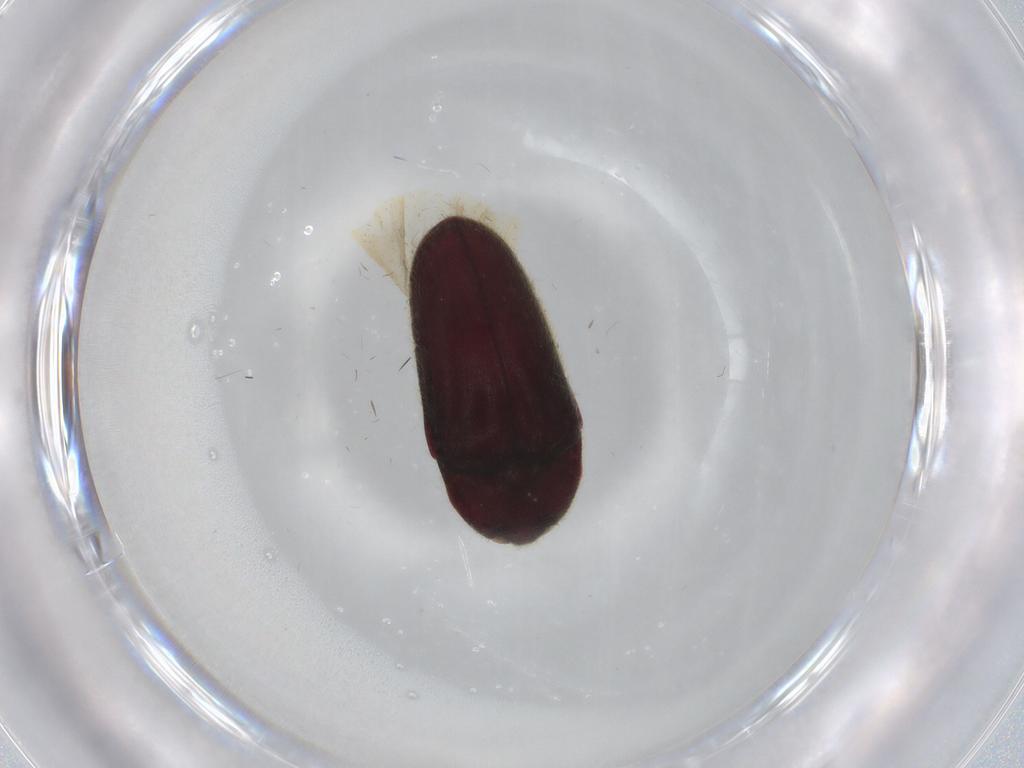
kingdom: Animalia
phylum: Arthropoda
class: Insecta
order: Coleoptera
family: Throscidae
